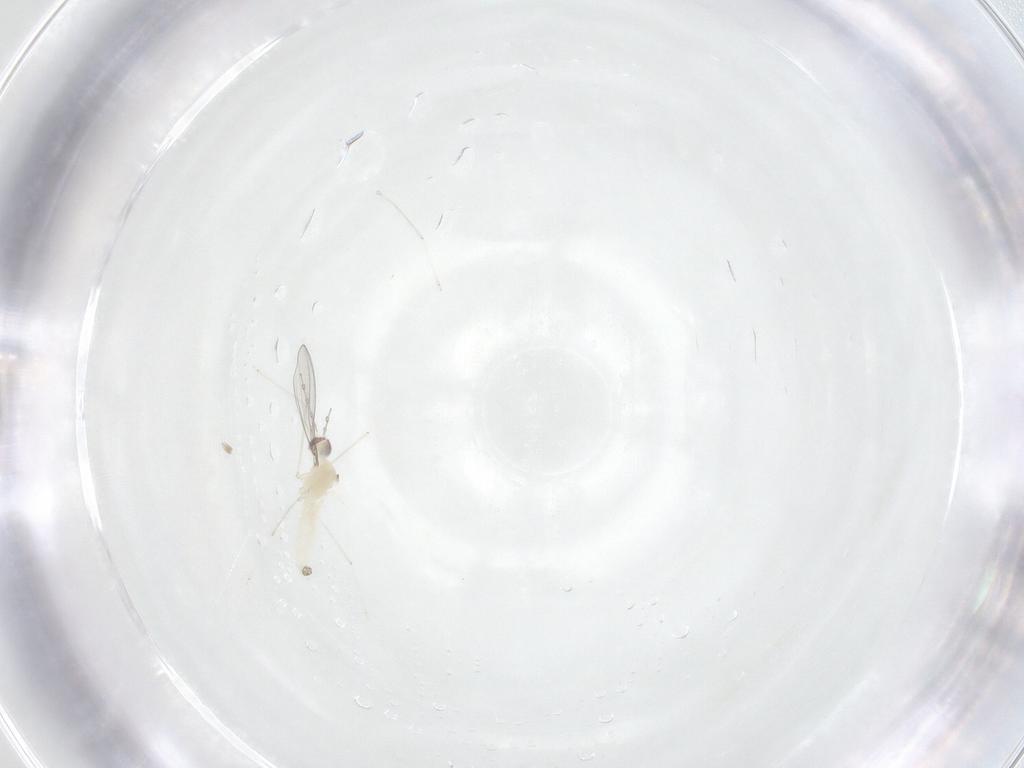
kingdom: Animalia
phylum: Arthropoda
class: Insecta
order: Diptera
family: Cecidomyiidae
